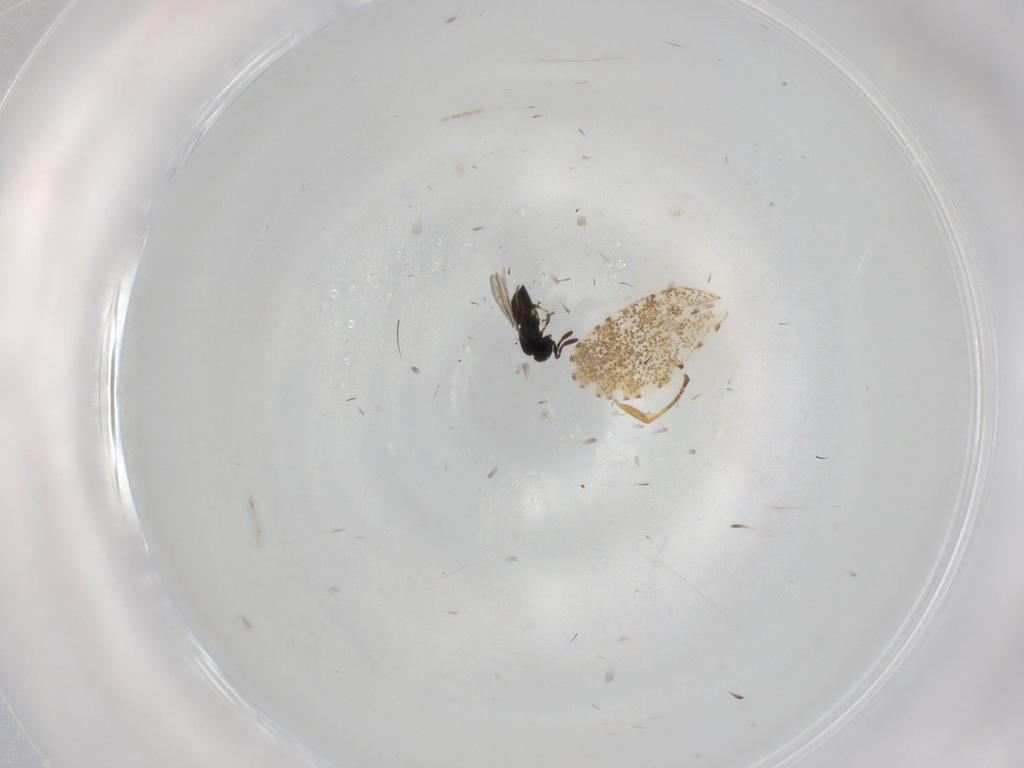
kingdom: Animalia
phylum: Arthropoda
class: Insecta
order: Hymenoptera
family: Scelionidae
